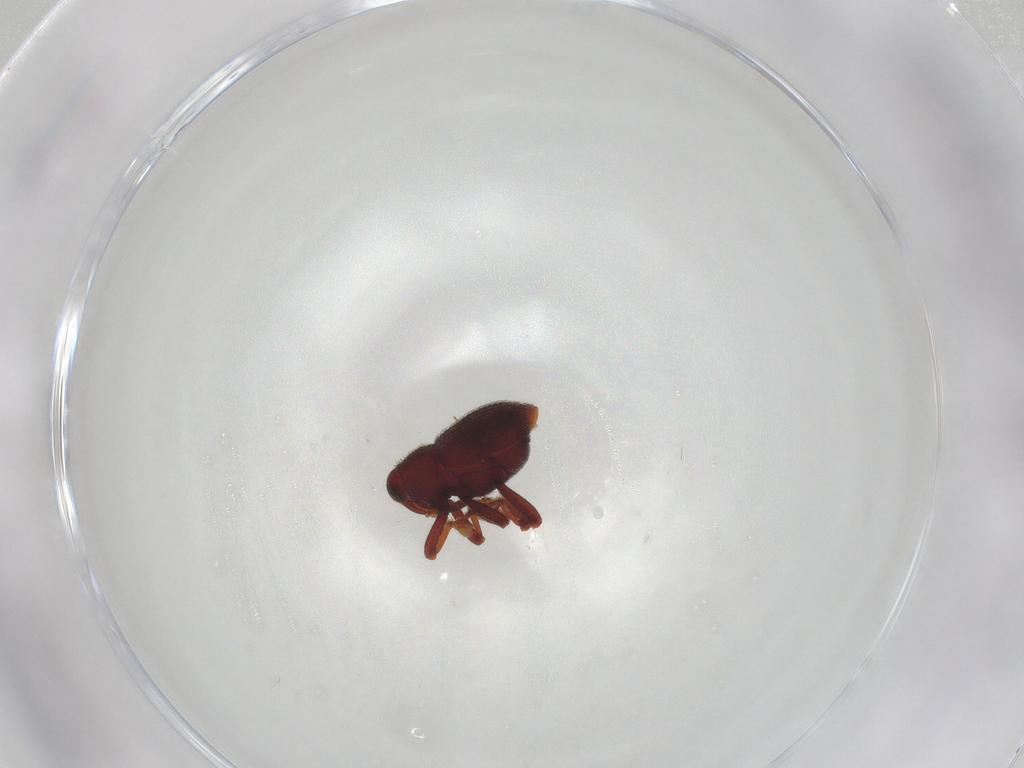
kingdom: Animalia
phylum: Arthropoda
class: Insecta
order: Coleoptera
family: Curculionidae
